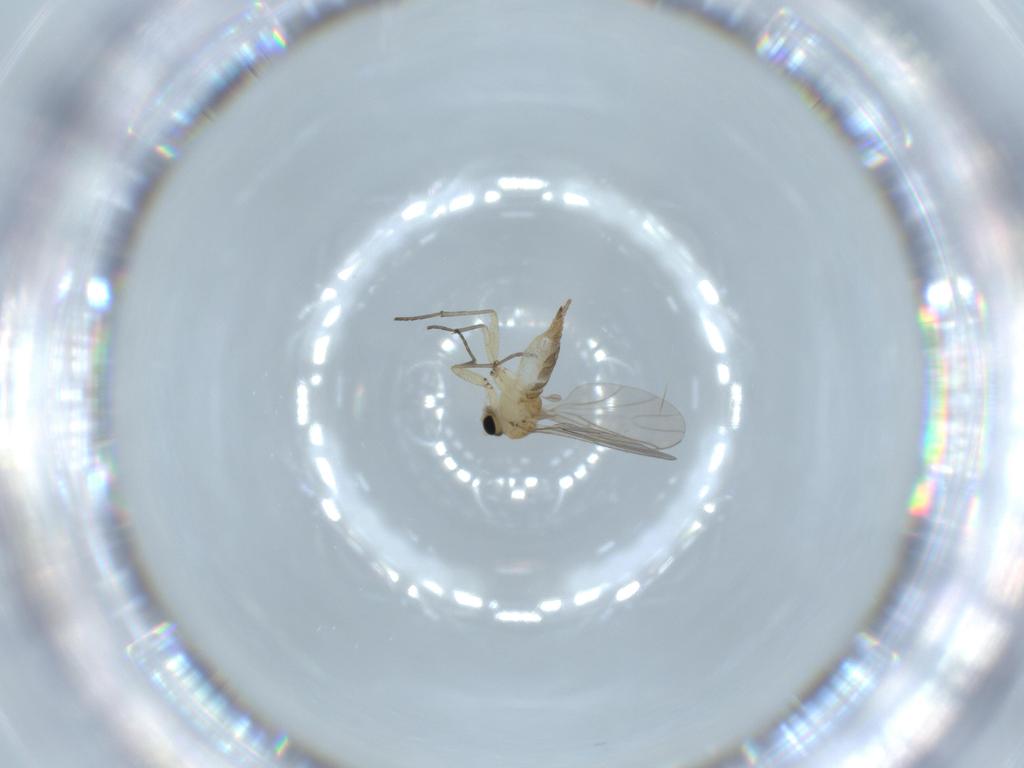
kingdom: Animalia
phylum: Arthropoda
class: Insecta
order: Diptera
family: Sciaridae
